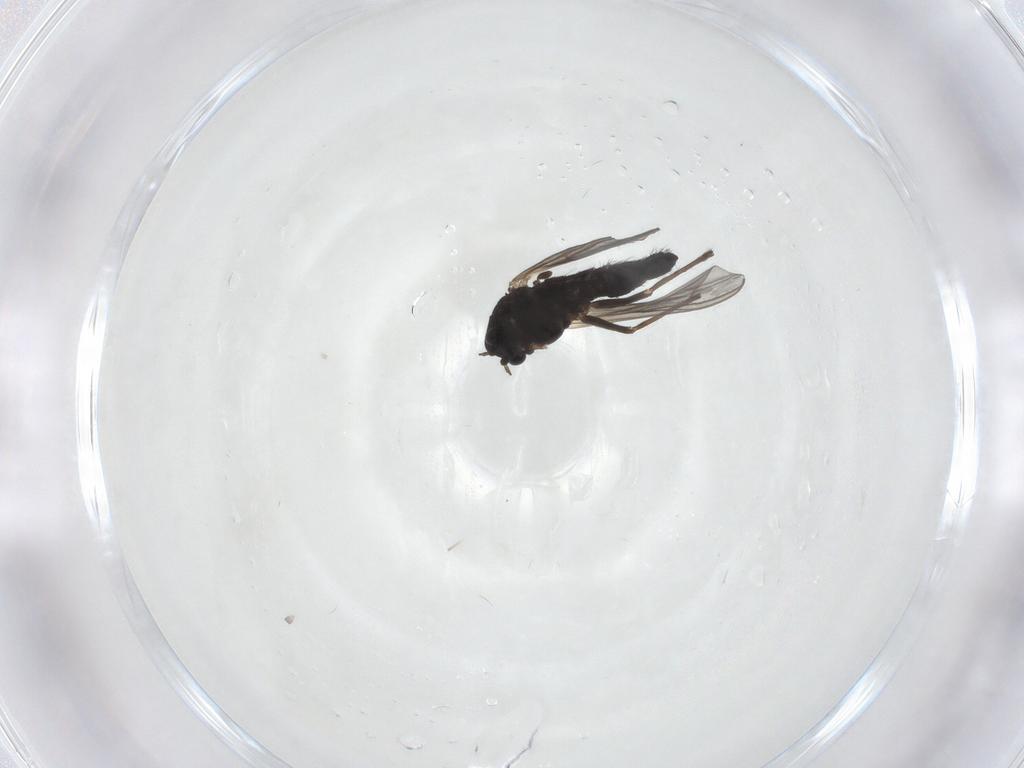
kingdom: Animalia
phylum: Arthropoda
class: Insecta
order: Diptera
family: Chironomidae
